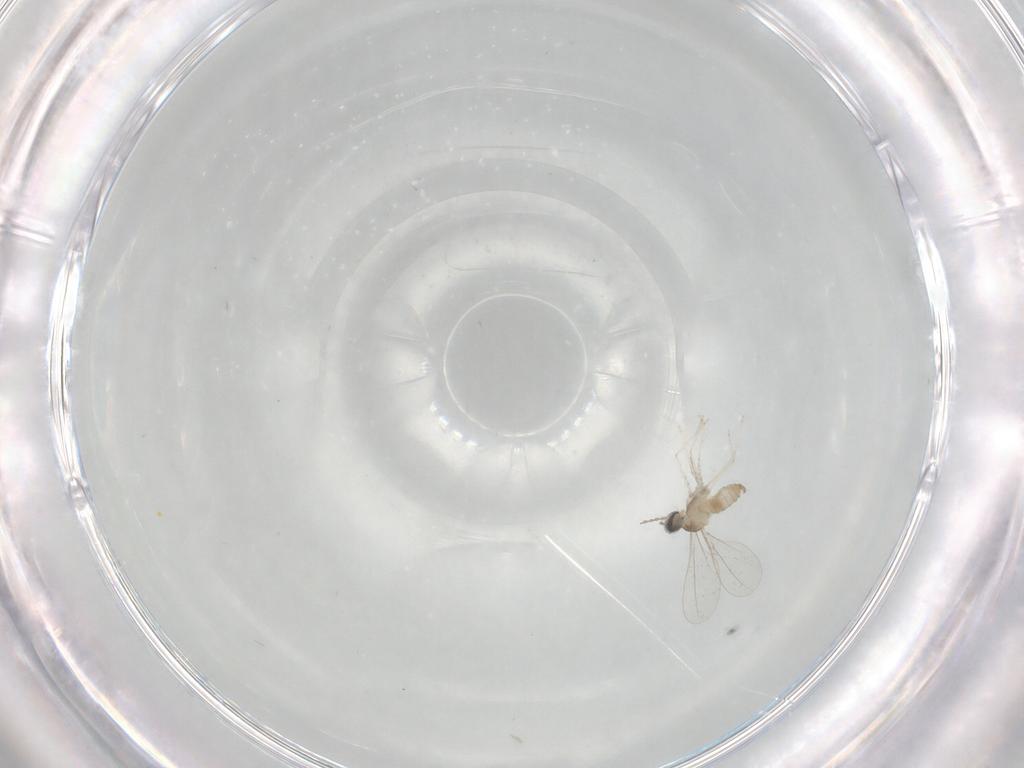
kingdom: Animalia
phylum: Arthropoda
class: Insecta
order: Diptera
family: Cecidomyiidae
